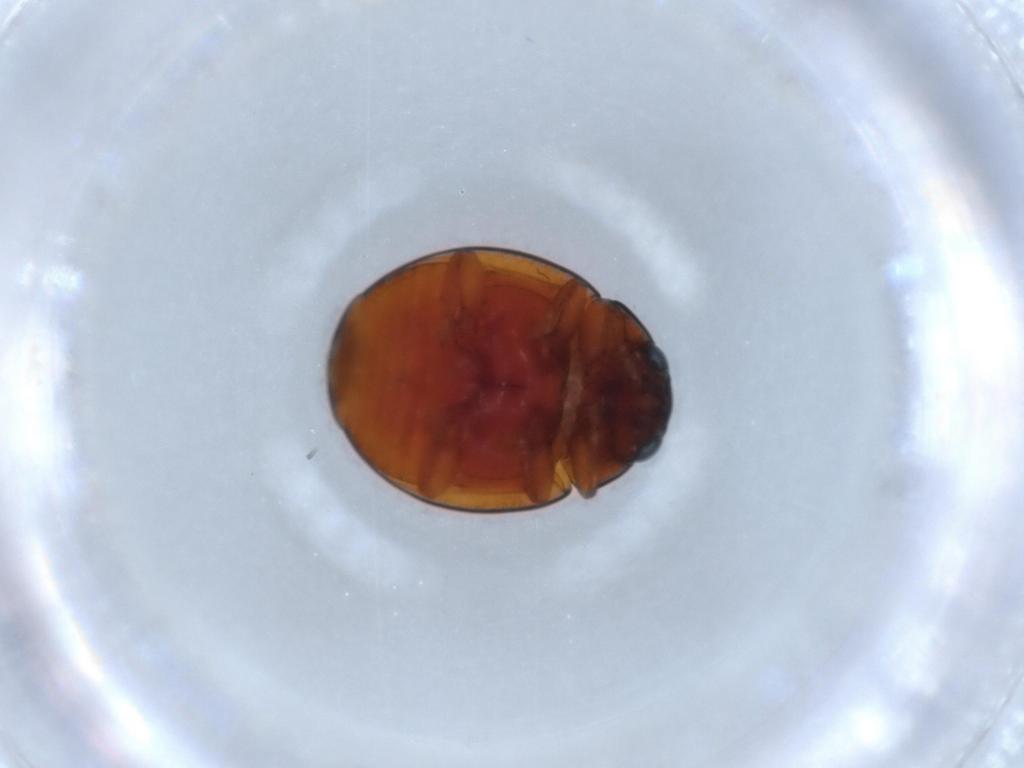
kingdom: Animalia
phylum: Arthropoda
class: Insecta
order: Coleoptera
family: Coccinellidae
